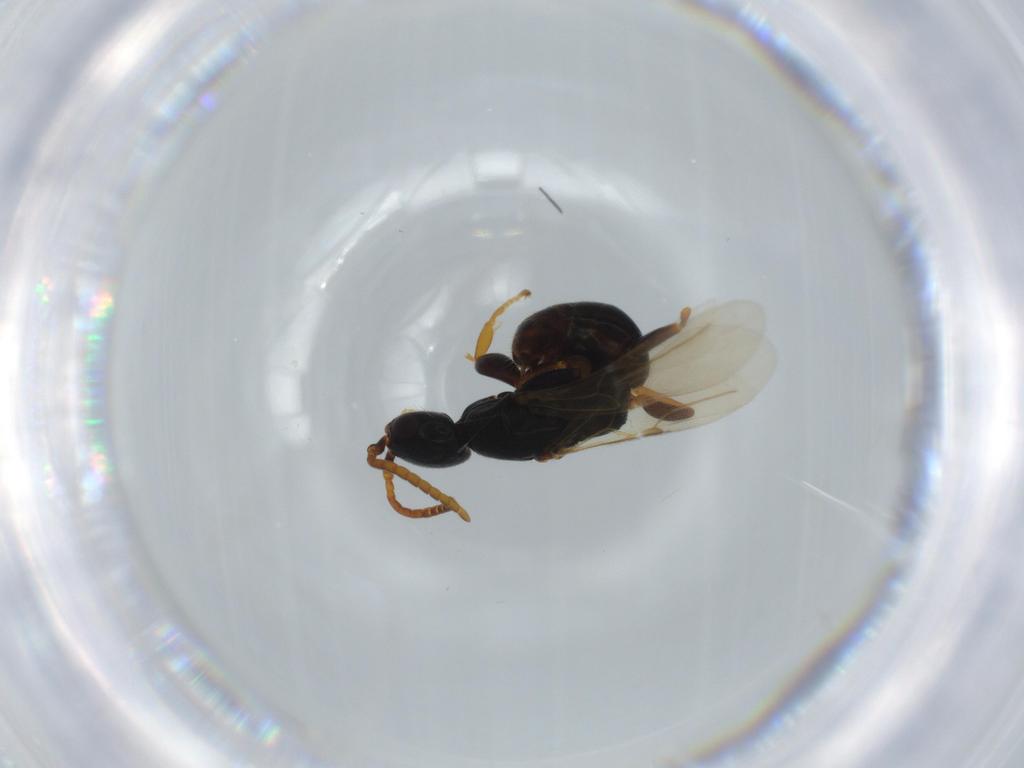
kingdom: Animalia
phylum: Arthropoda
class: Insecta
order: Hymenoptera
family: Bethylidae
